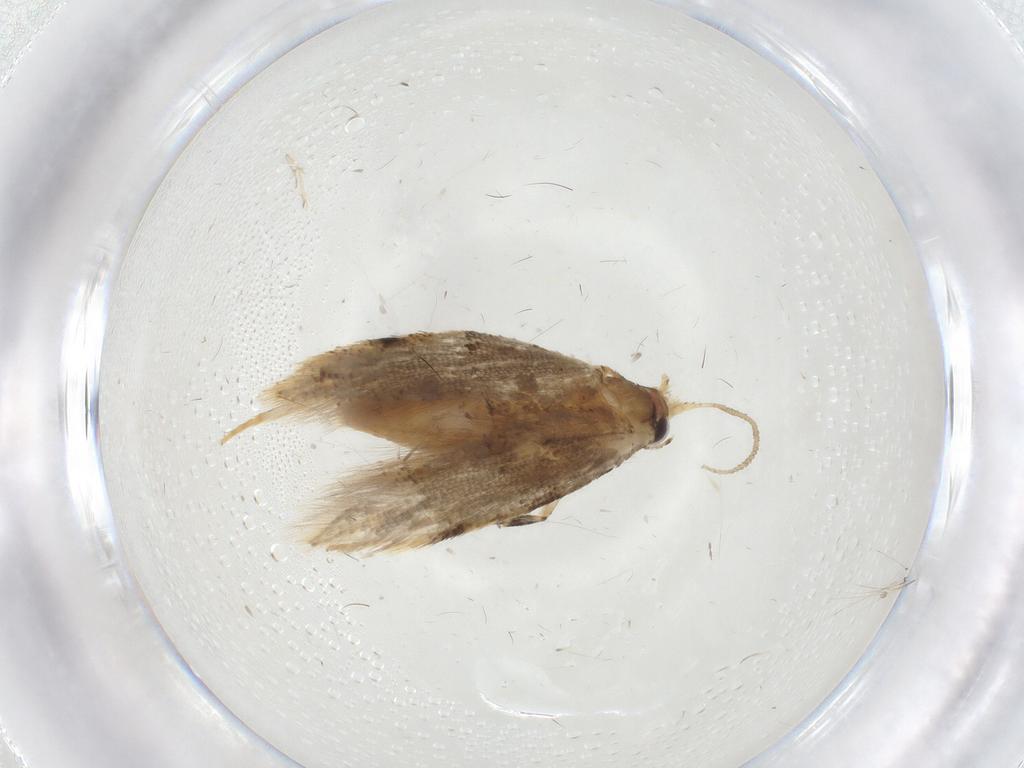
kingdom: Animalia
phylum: Arthropoda
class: Insecta
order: Lepidoptera
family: Meessiidae
